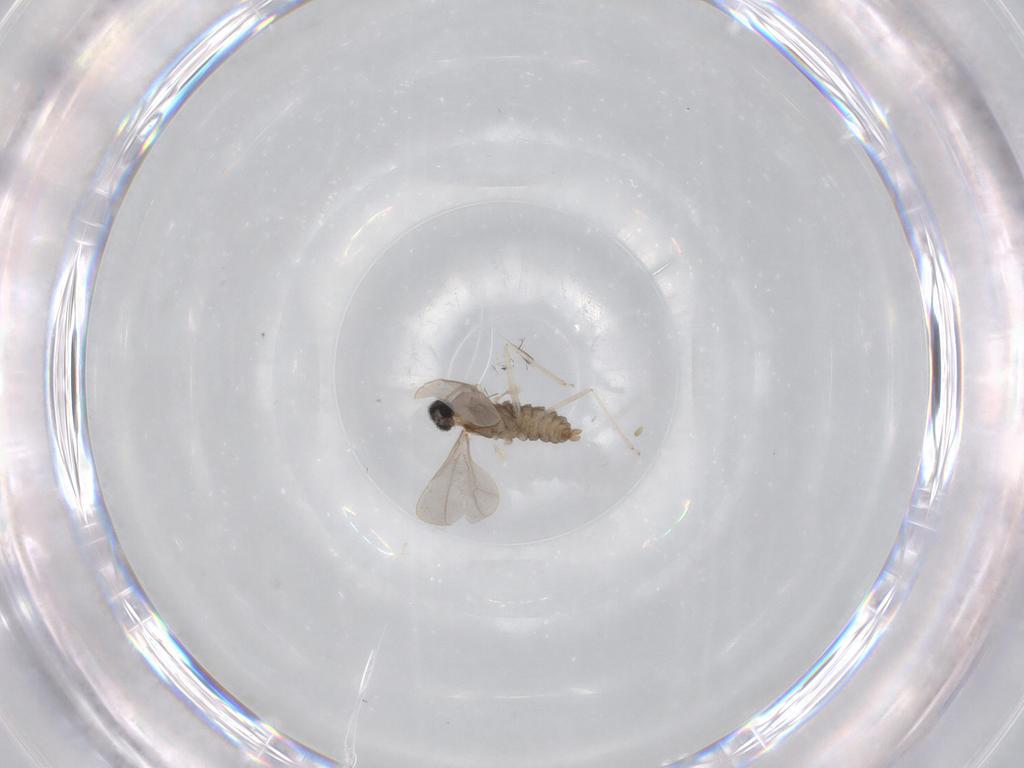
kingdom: Animalia
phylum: Arthropoda
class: Insecta
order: Diptera
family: Cecidomyiidae
